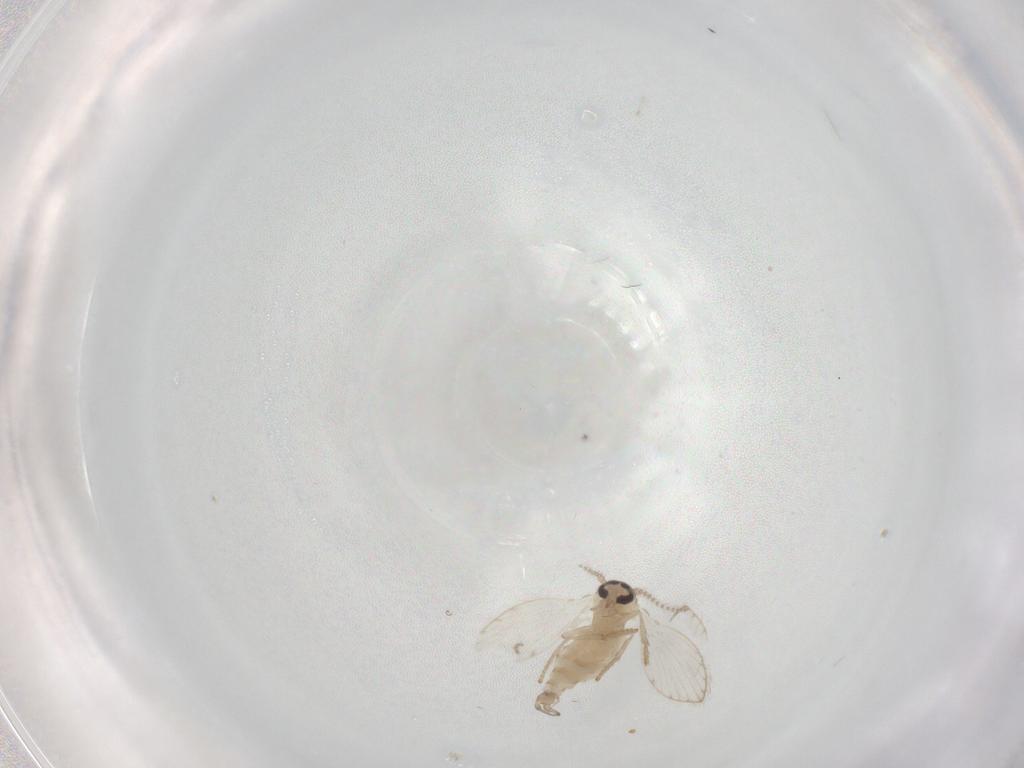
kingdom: Animalia
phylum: Arthropoda
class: Insecta
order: Diptera
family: Psychodidae
